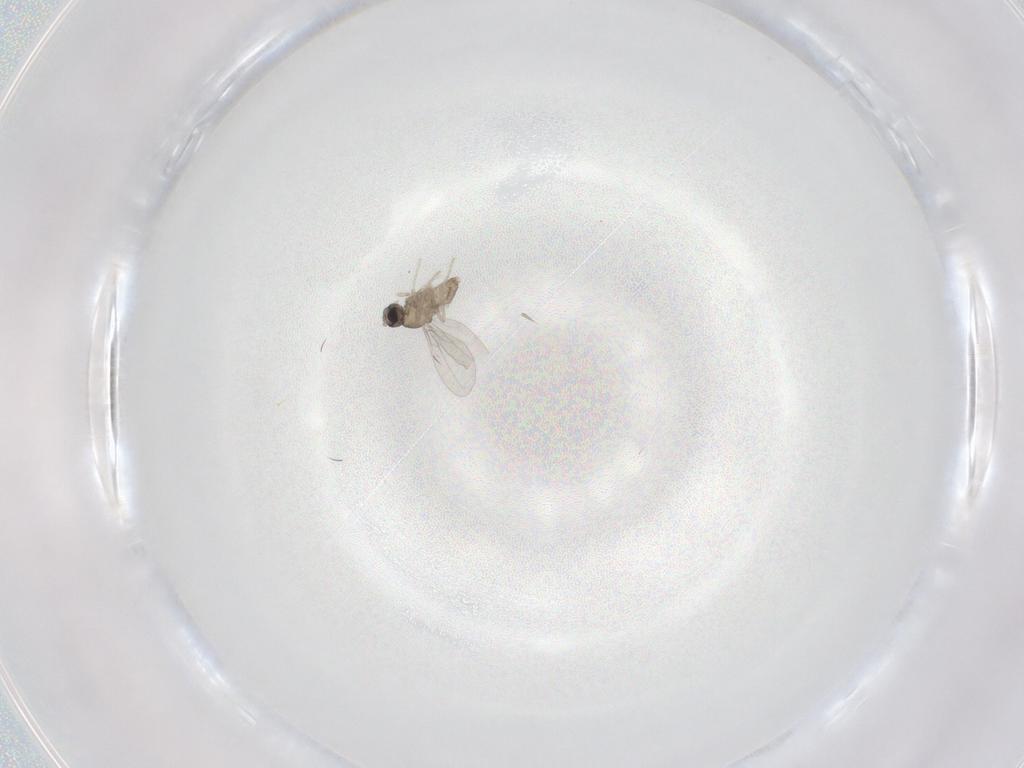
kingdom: Animalia
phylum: Arthropoda
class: Insecta
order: Diptera
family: Cecidomyiidae
